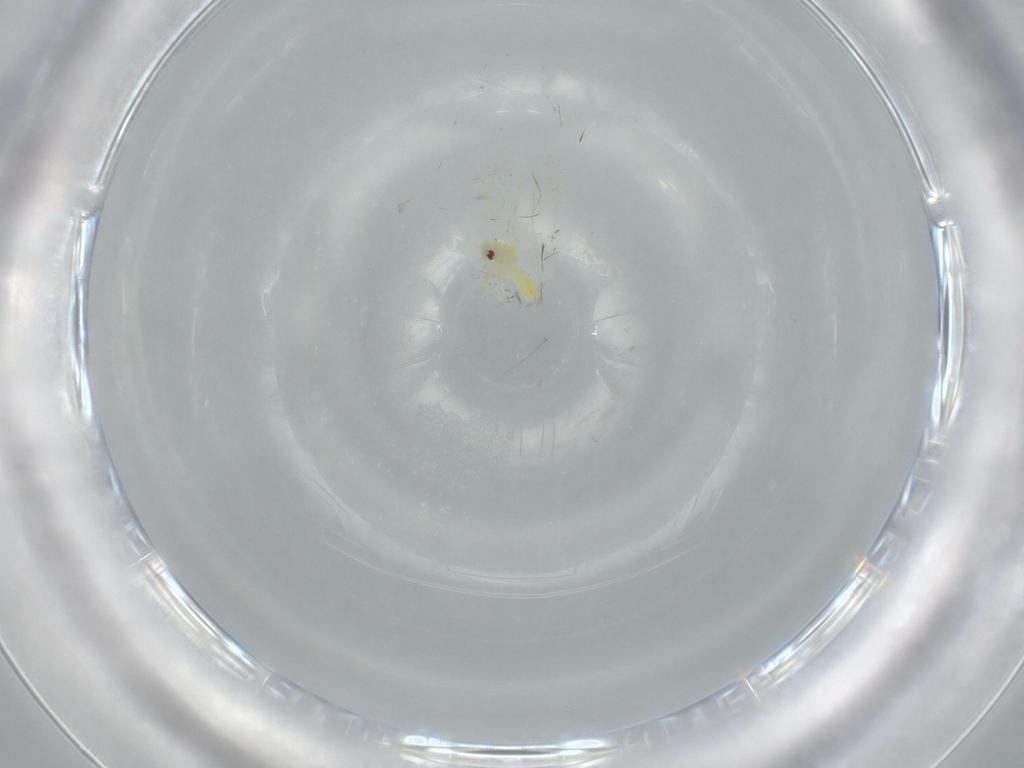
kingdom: Animalia
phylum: Arthropoda
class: Insecta
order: Hemiptera
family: Aleyrodidae
